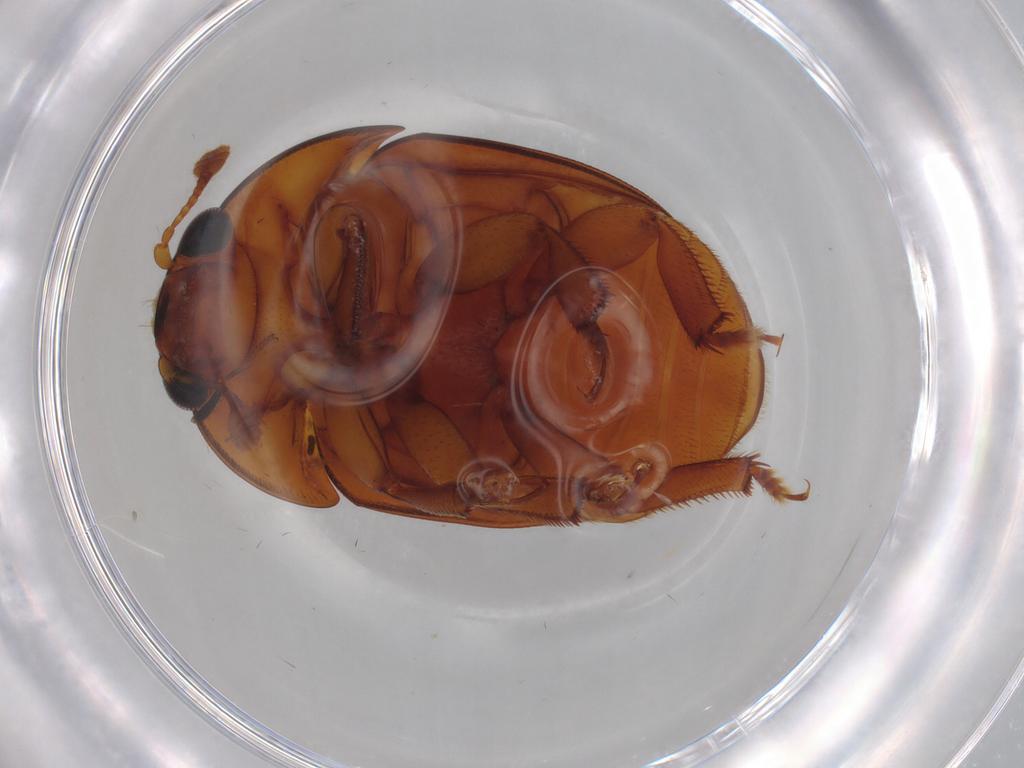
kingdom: Animalia
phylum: Arthropoda
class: Insecta
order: Coleoptera
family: Nitidulidae
